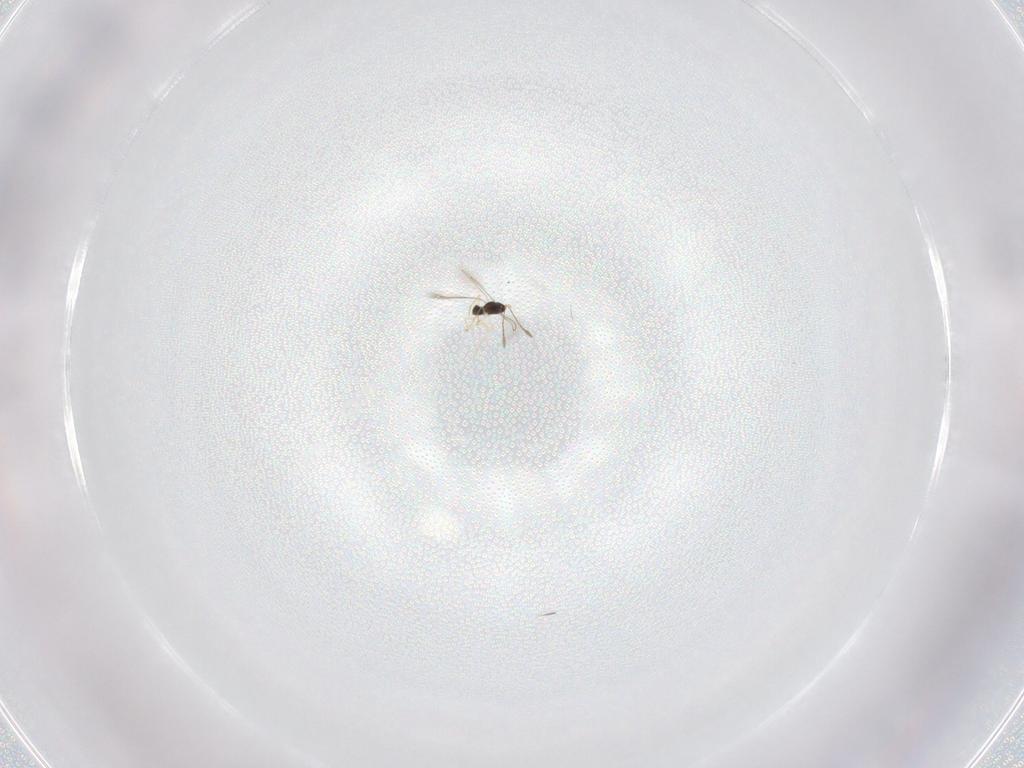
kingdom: Animalia
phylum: Arthropoda
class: Insecta
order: Hymenoptera
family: Mymaridae
